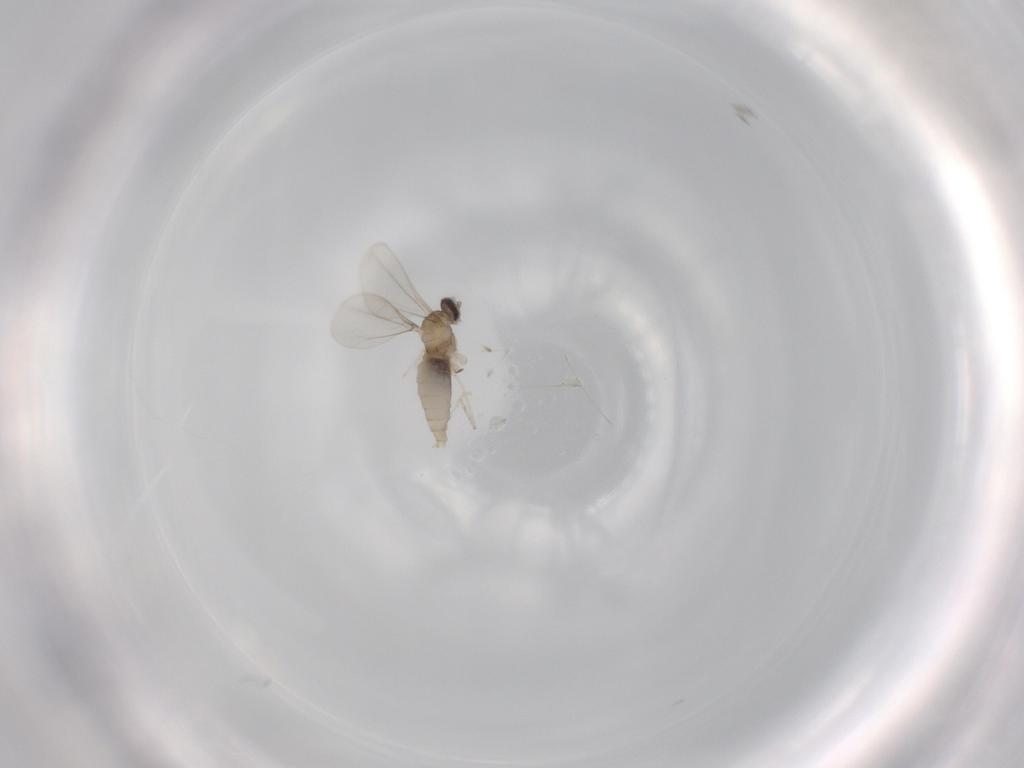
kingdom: Animalia
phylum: Arthropoda
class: Insecta
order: Diptera
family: Cecidomyiidae
